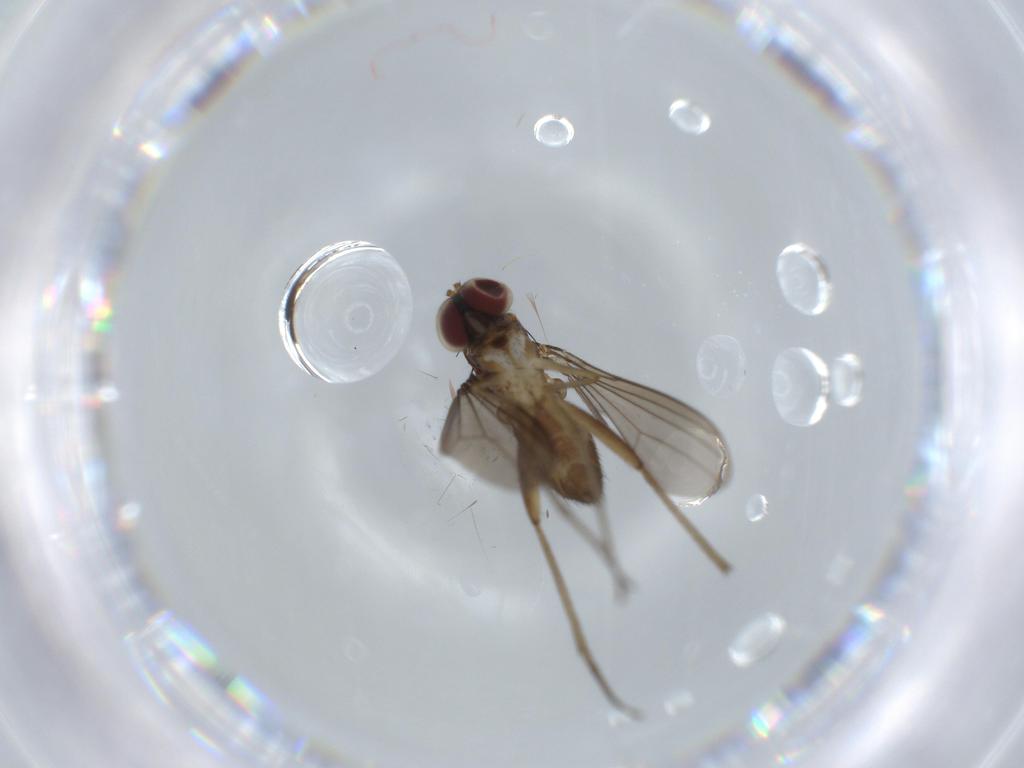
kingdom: Animalia
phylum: Arthropoda
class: Insecta
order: Diptera
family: Dolichopodidae
